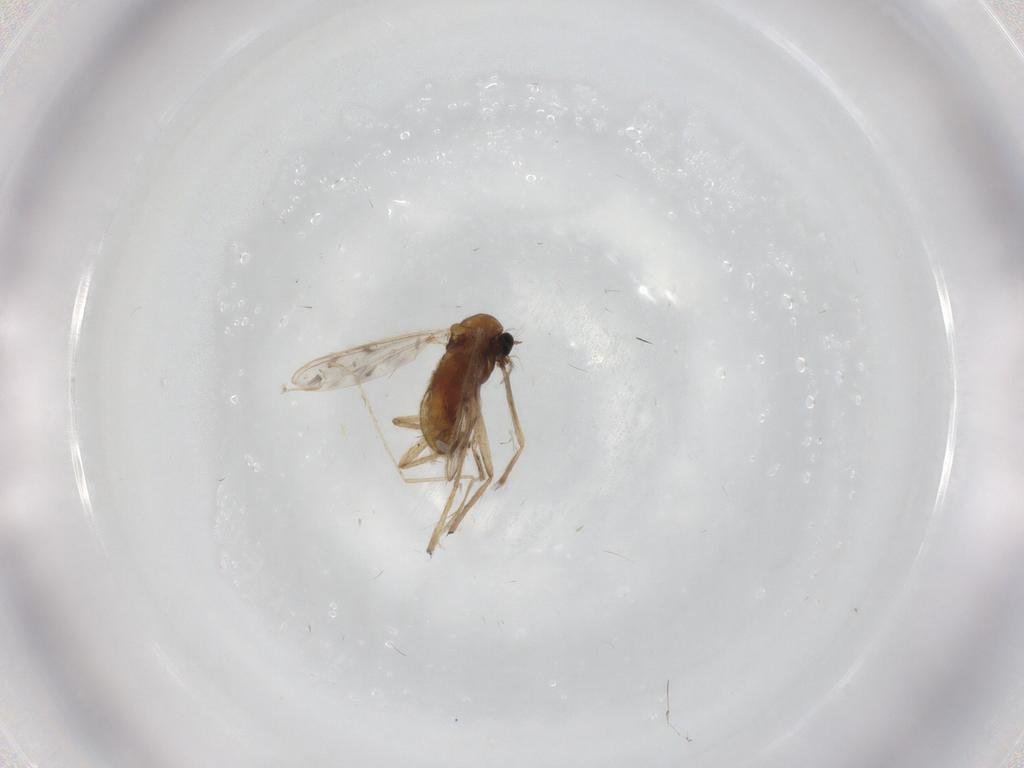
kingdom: Animalia
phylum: Arthropoda
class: Insecta
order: Diptera
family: Chironomidae
